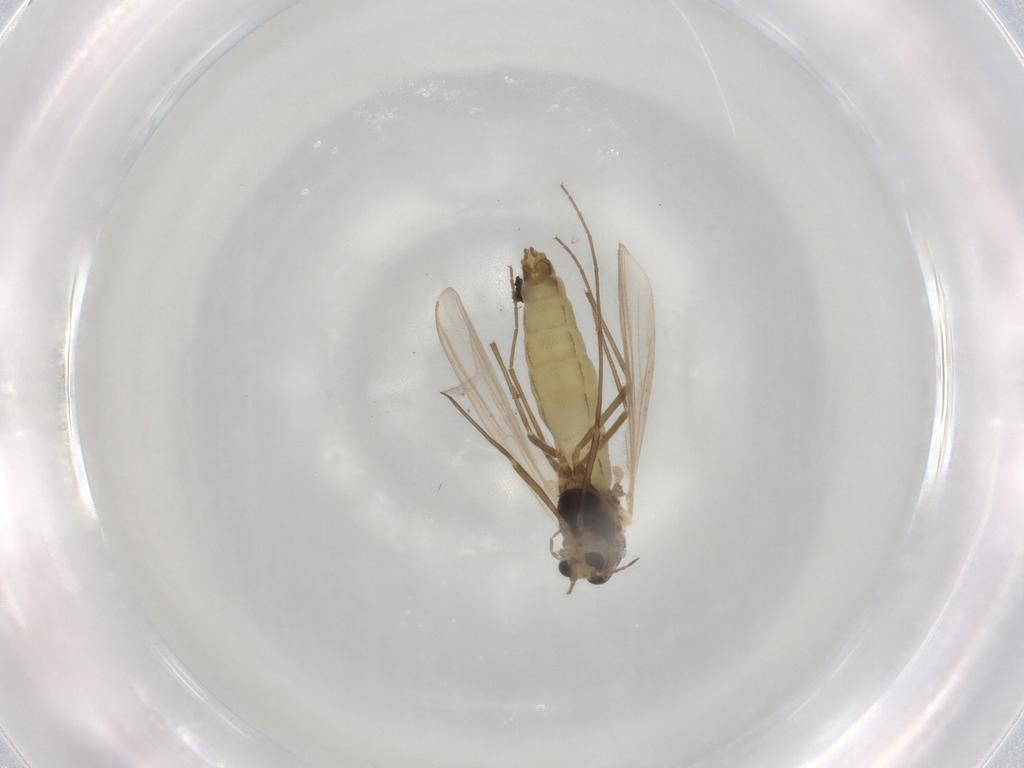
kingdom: Animalia
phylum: Arthropoda
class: Insecta
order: Diptera
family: Chironomidae
